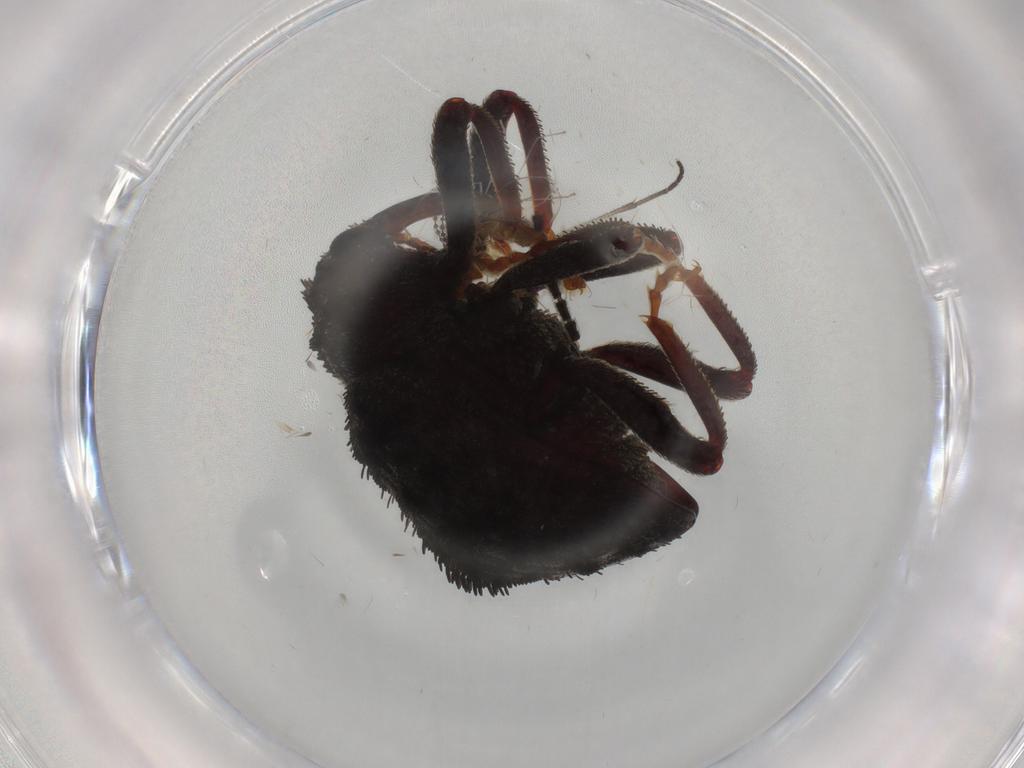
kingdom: Animalia
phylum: Arthropoda
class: Insecta
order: Coleoptera
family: Curculionidae
